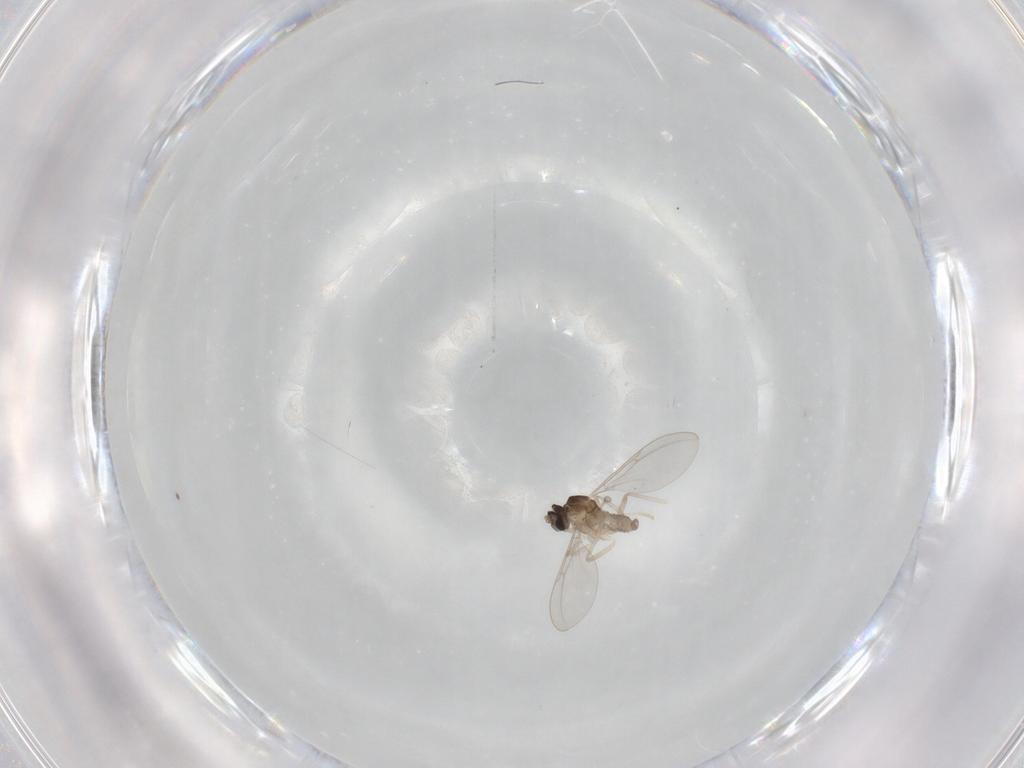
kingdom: Animalia
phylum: Arthropoda
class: Insecta
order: Diptera
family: Cecidomyiidae
